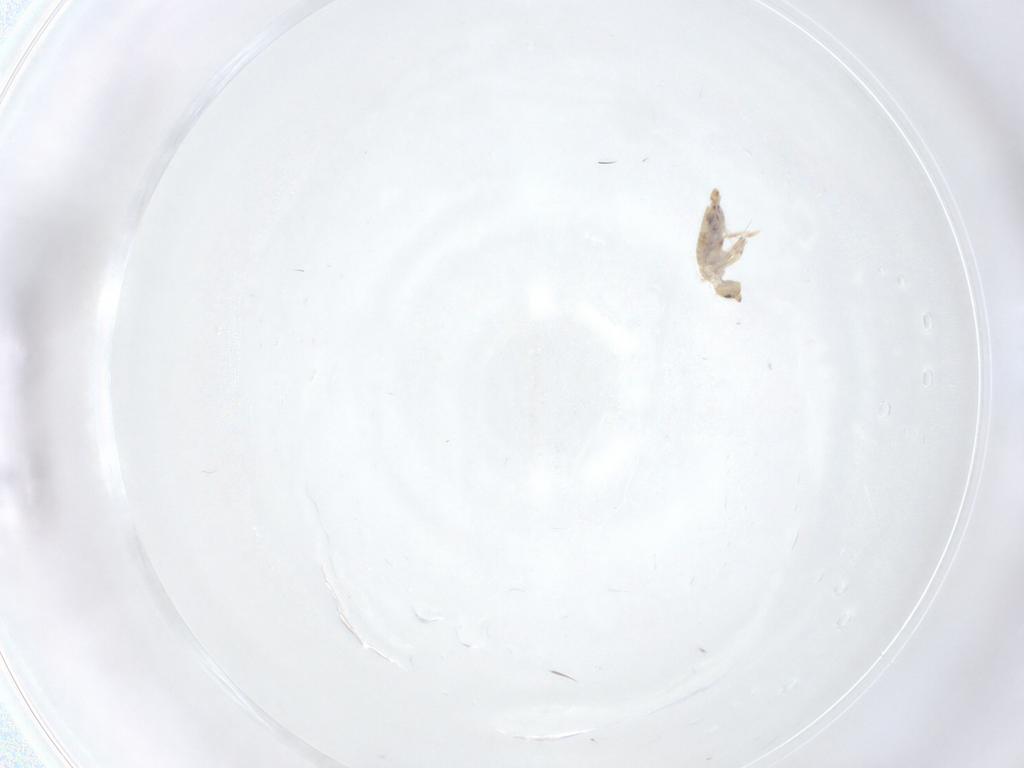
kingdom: Animalia
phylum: Arthropoda
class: Collembola
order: Entomobryomorpha
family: Entomobryidae
